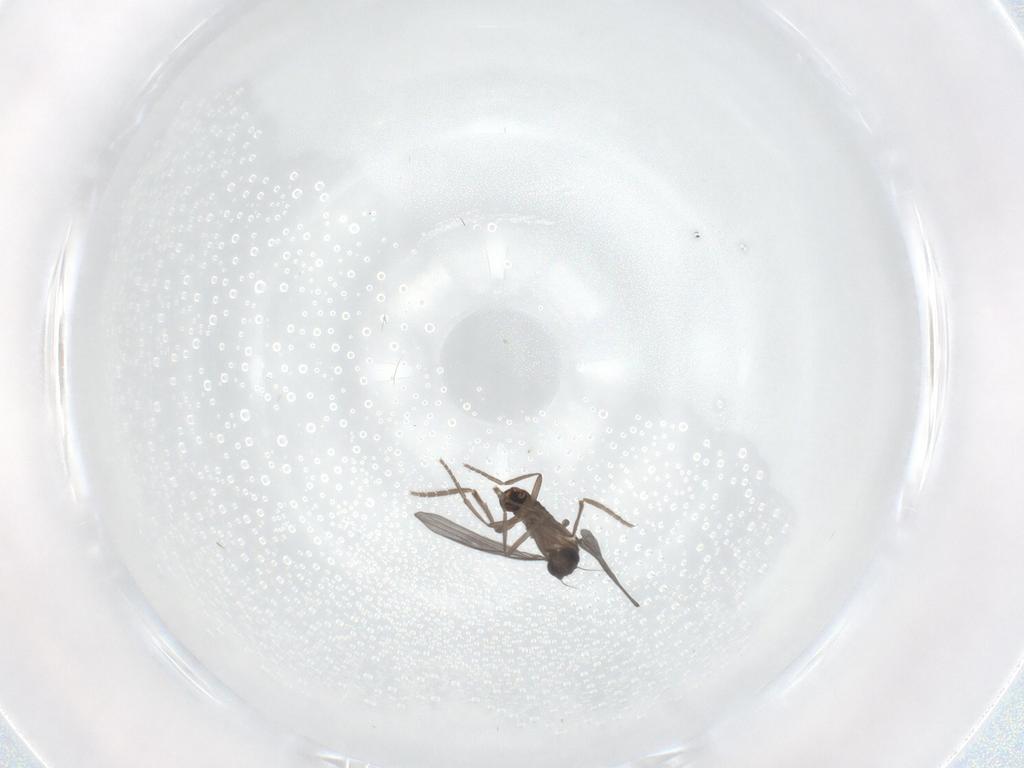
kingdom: Animalia
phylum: Arthropoda
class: Insecta
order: Diptera
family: Phoridae
